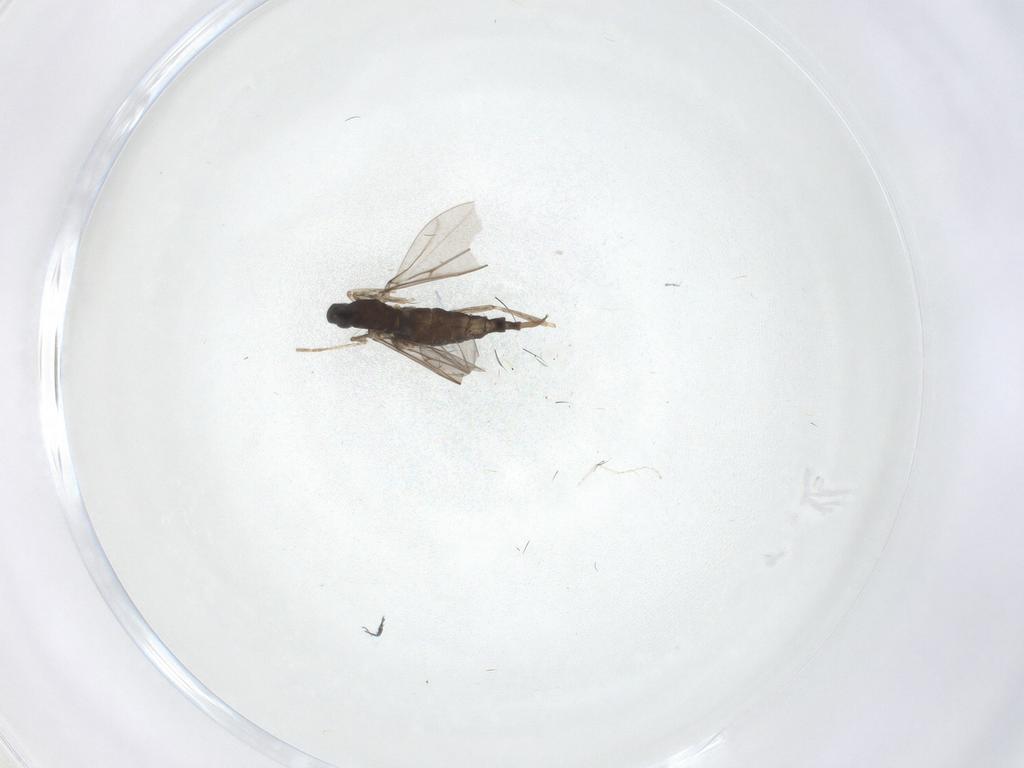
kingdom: Animalia
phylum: Arthropoda
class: Insecta
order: Diptera
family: Cecidomyiidae
